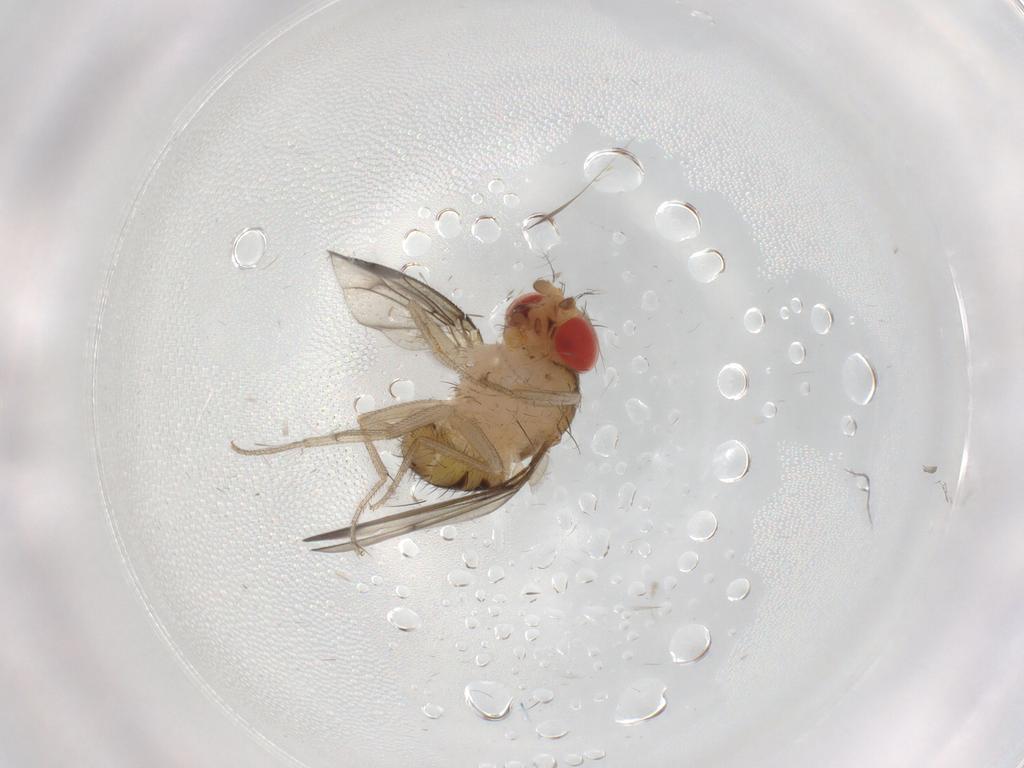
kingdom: Animalia
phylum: Arthropoda
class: Insecta
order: Diptera
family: Drosophilidae
